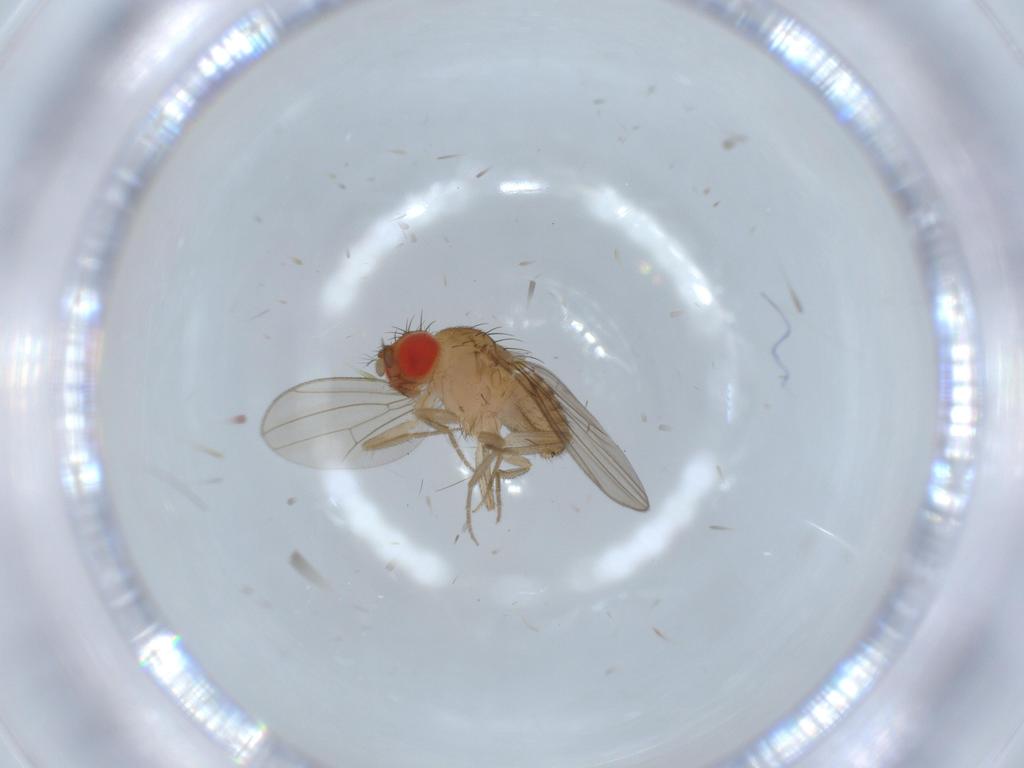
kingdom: Animalia
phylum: Arthropoda
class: Insecta
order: Diptera
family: Drosophilidae
